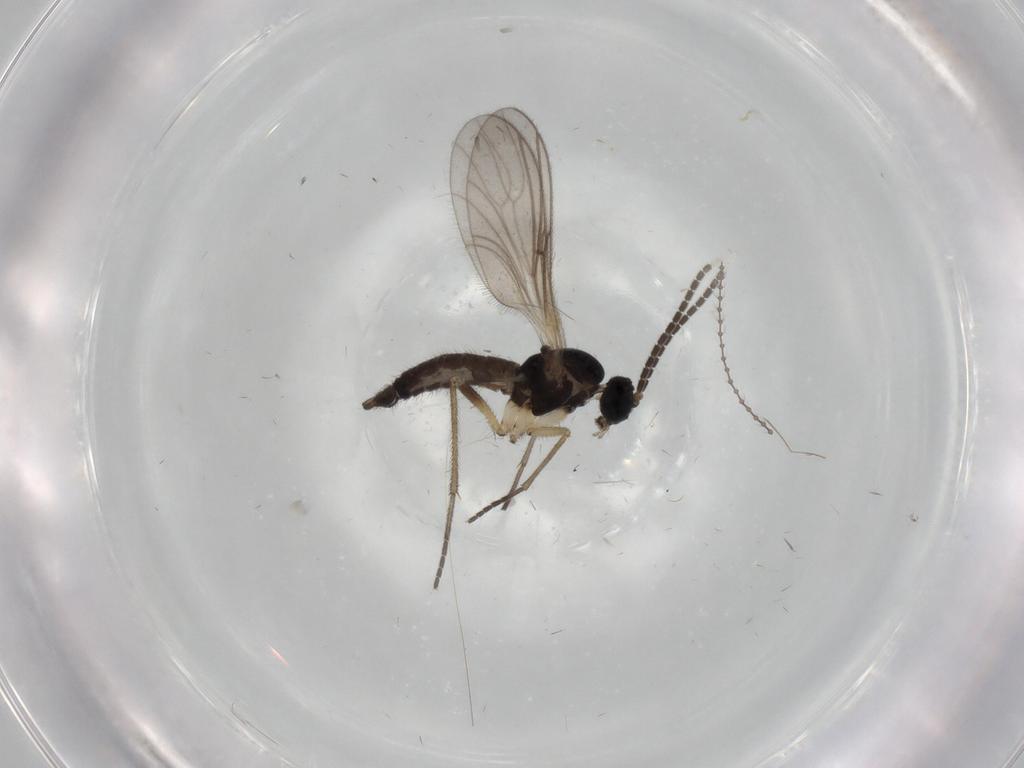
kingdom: Animalia
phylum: Arthropoda
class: Insecta
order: Diptera
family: Sciaridae
